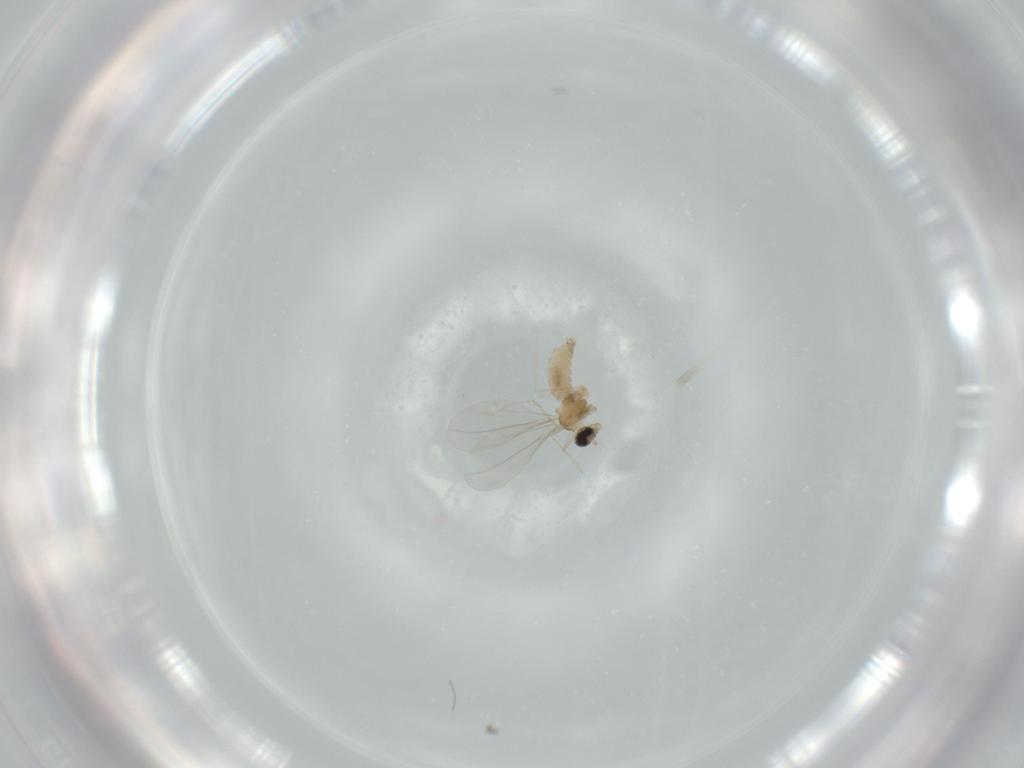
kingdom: Animalia
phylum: Arthropoda
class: Insecta
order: Diptera
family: Cecidomyiidae
